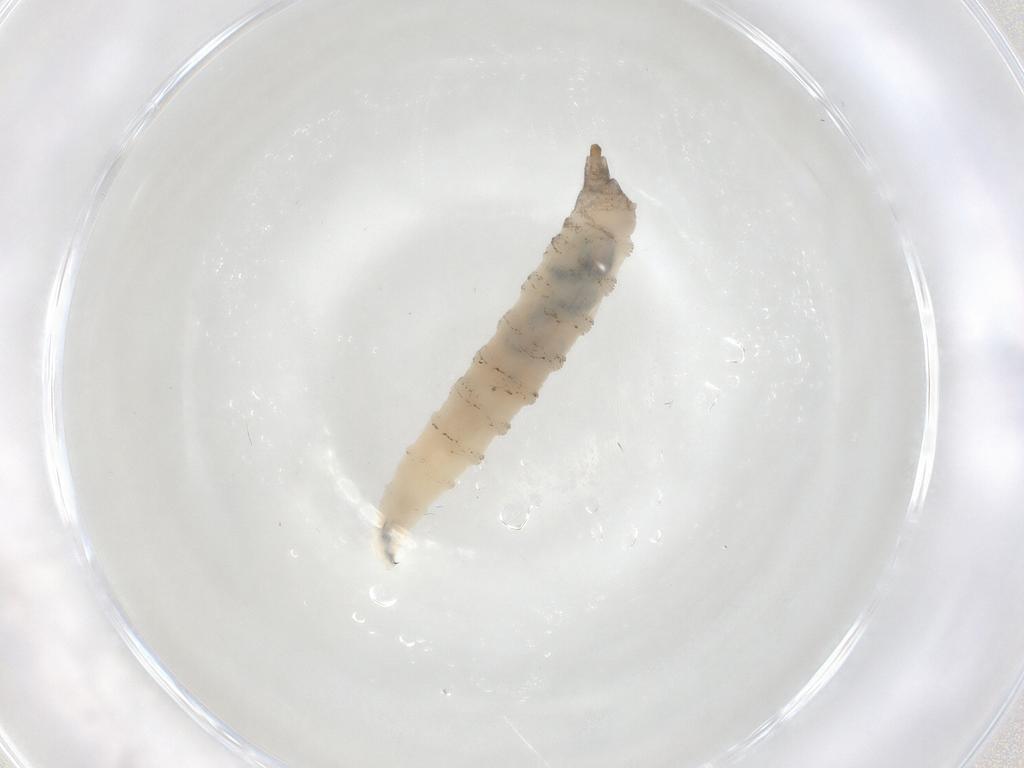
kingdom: Animalia
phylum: Arthropoda
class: Insecta
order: Diptera
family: Drosophilidae
